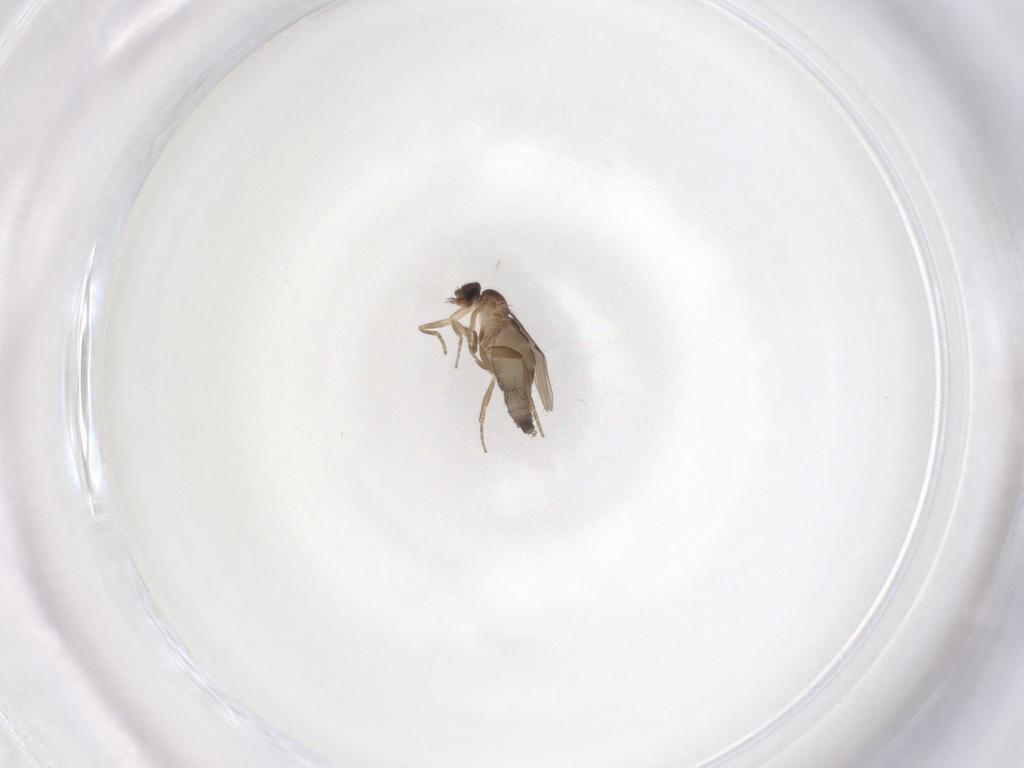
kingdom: Animalia
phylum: Arthropoda
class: Insecta
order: Diptera
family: Phoridae
